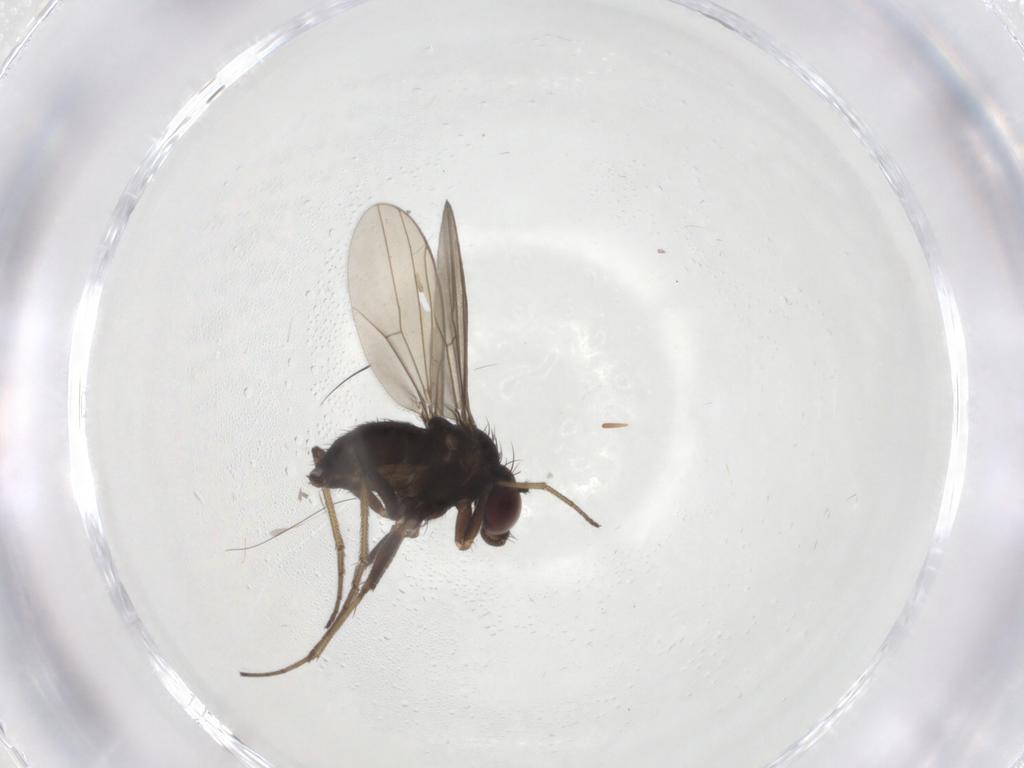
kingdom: Animalia
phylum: Arthropoda
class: Insecta
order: Diptera
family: Dolichopodidae
